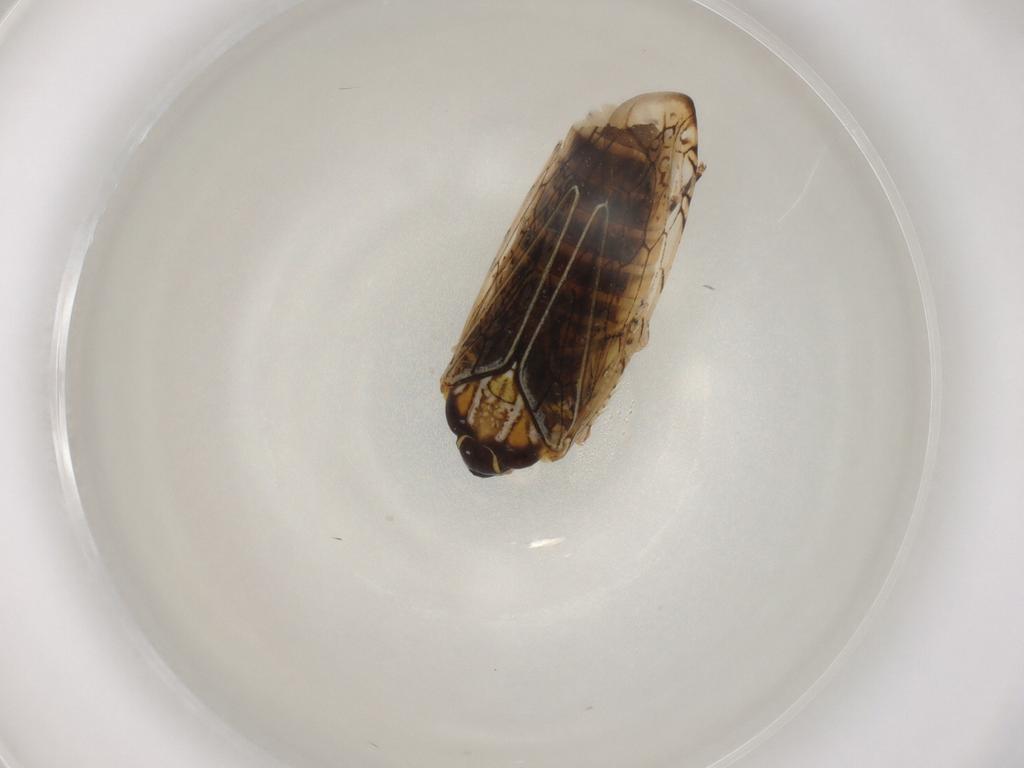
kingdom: Animalia
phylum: Arthropoda
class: Insecta
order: Hemiptera
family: Cicadellidae
